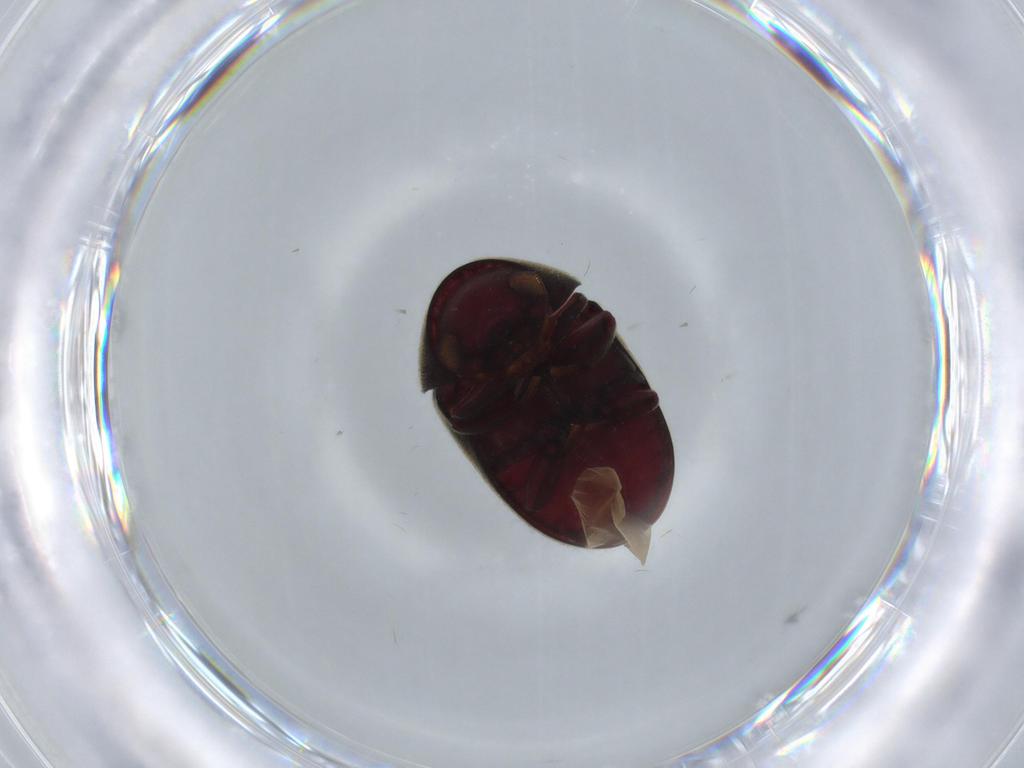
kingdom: Animalia
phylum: Arthropoda
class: Insecta
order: Coleoptera
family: Ptinidae
